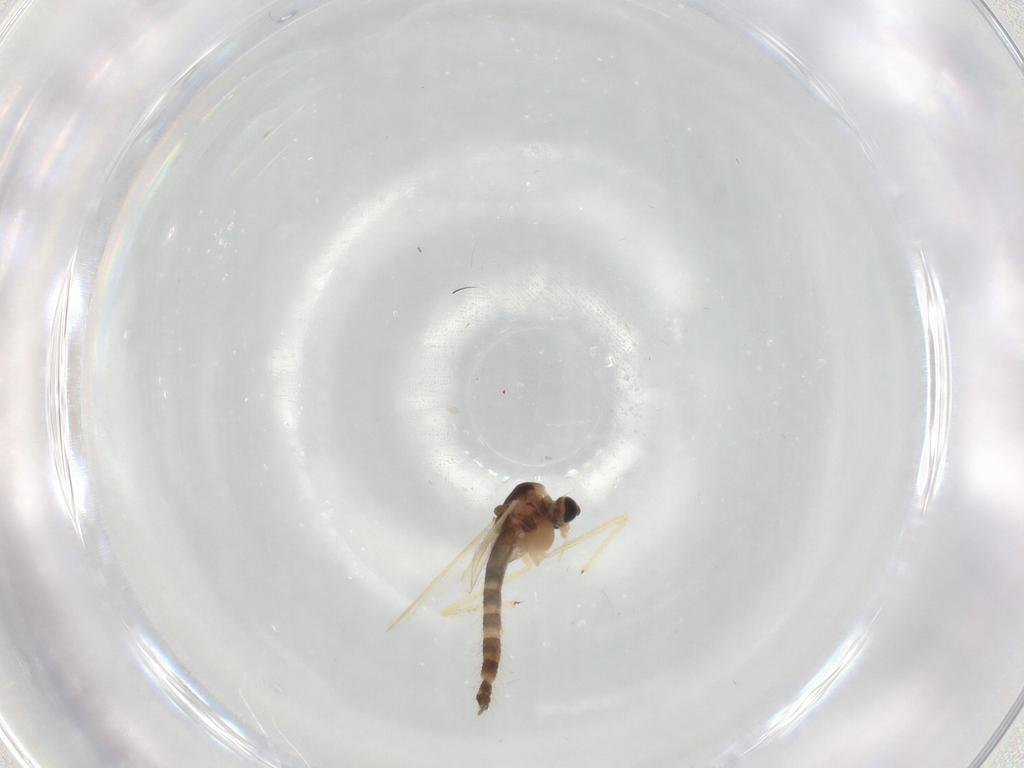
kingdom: Animalia
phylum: Arthropoda
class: Insecta
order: Diptera
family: Chironomidae
